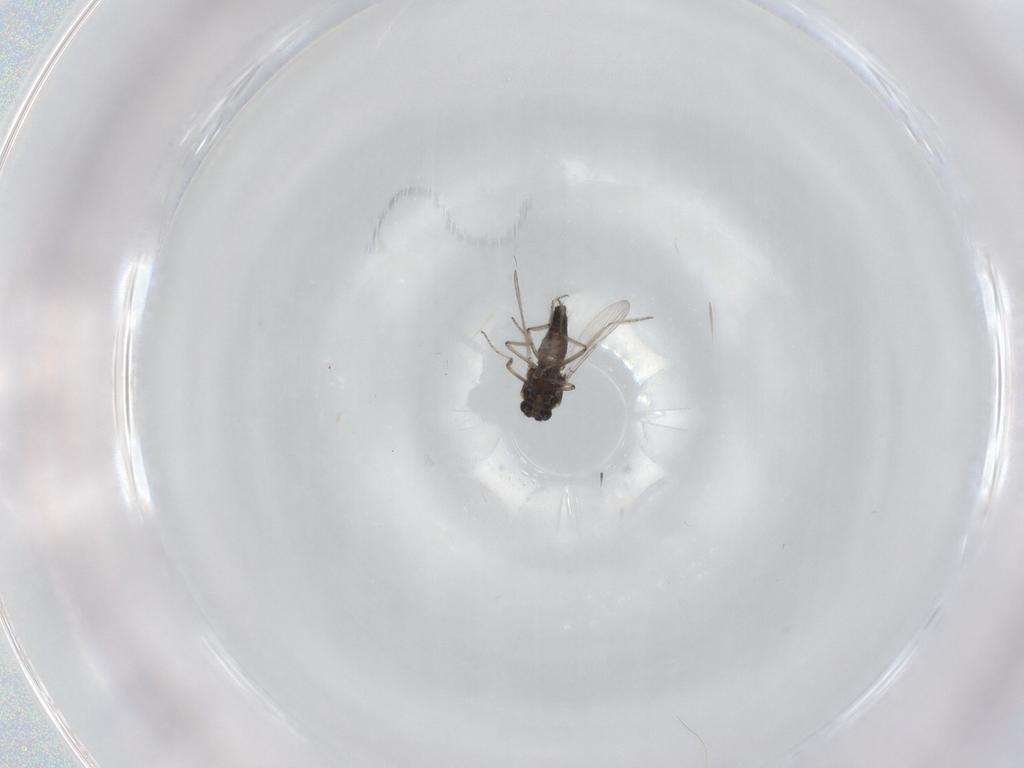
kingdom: Animalia
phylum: Arthropoda
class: Insecta
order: Diptera
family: Ceratopogonidae
